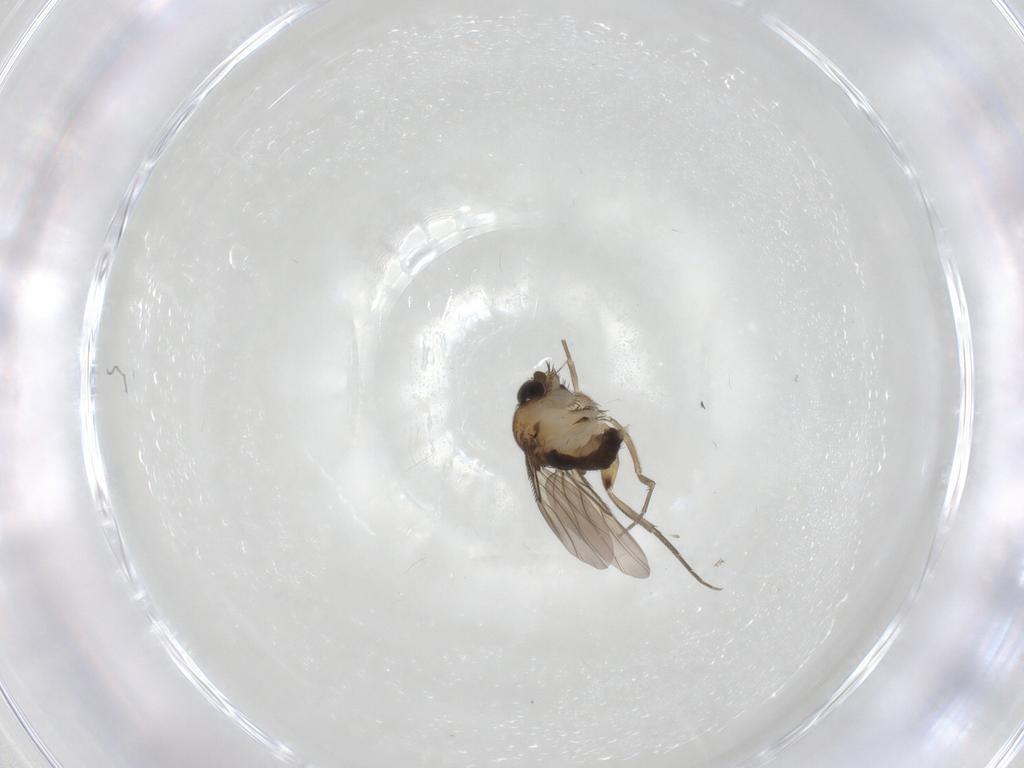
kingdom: Animalia
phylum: Arthropoda
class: Insecta
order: Diptera
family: Phoridae
